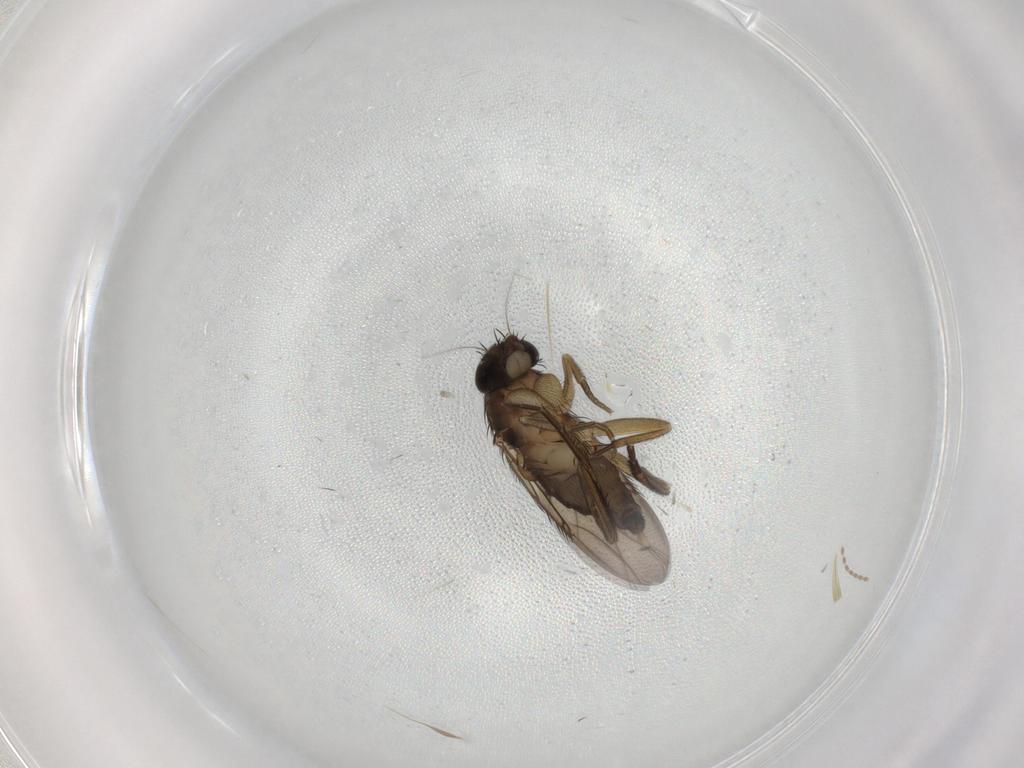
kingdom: Animalia
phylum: Arthropoda
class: Insecta
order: Diptera
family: Phoridae
